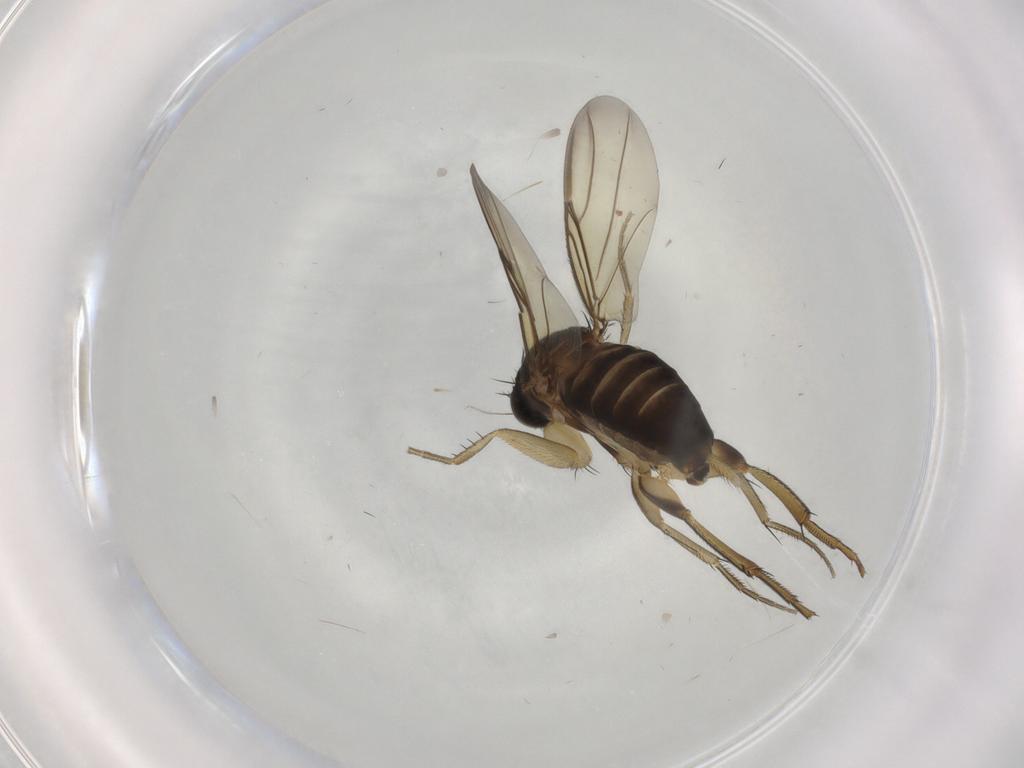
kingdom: Animalia
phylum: Arthropoda
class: Insecta
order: Diptera
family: Phoridae
